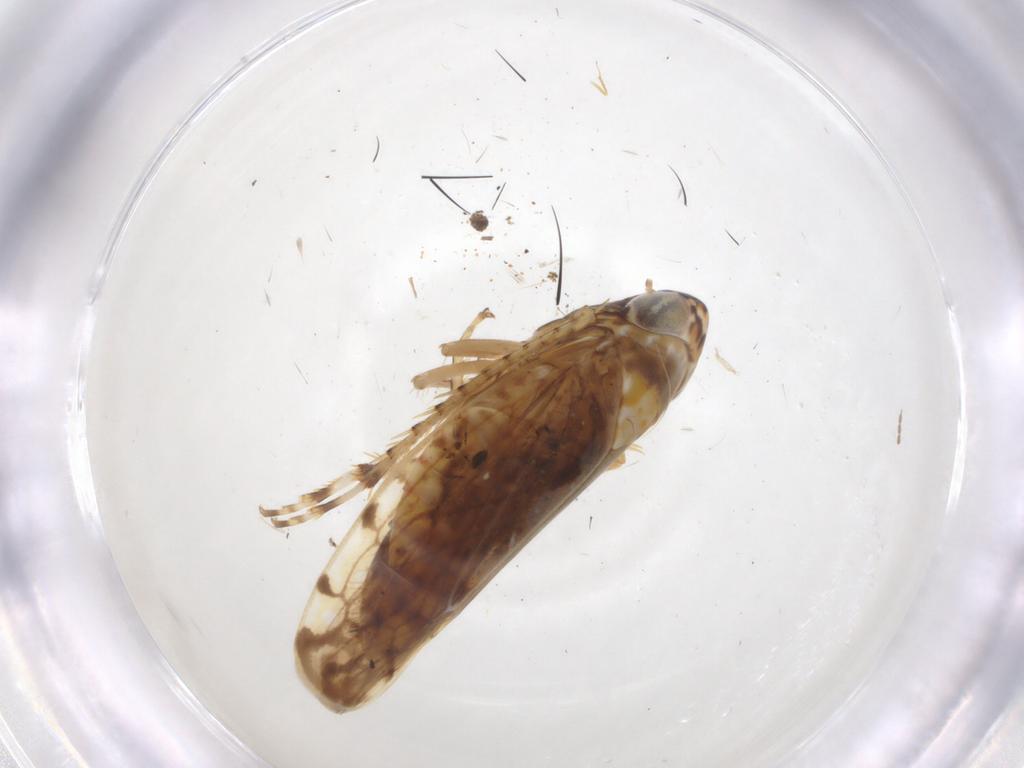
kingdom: Animalia
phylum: Arthropoda
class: Insecta
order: Hemiptera
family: Cicadellidae
